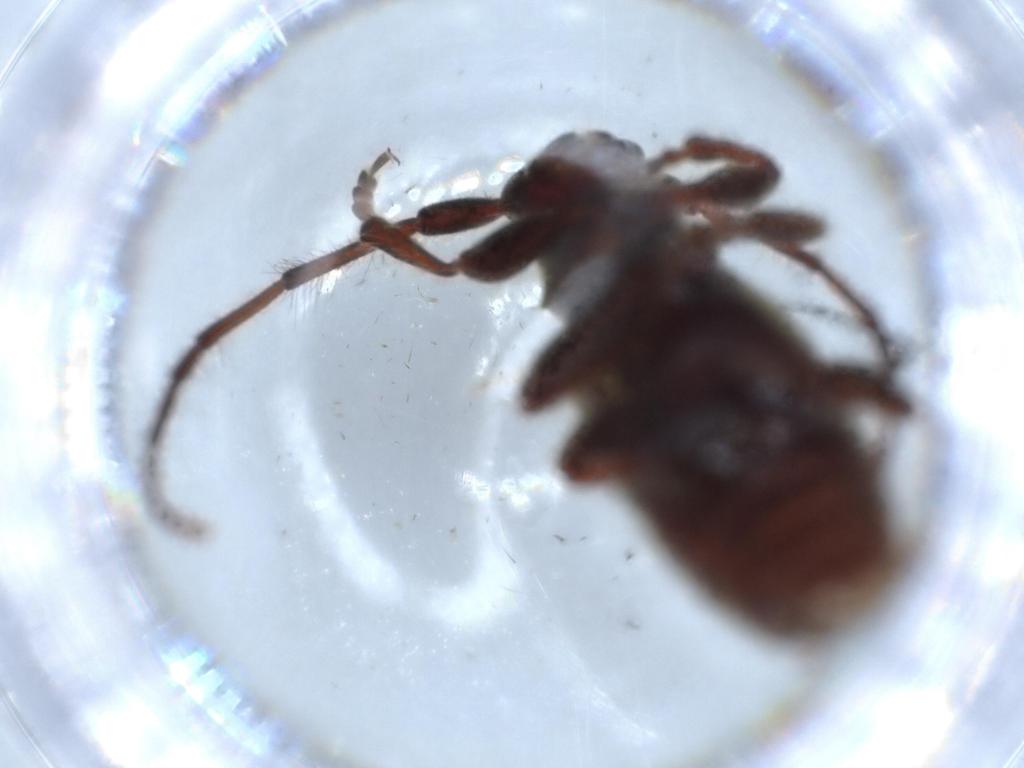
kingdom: Animalia
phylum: Arthropoda
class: Insecta
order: Coleoptera
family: Cerambycidae
